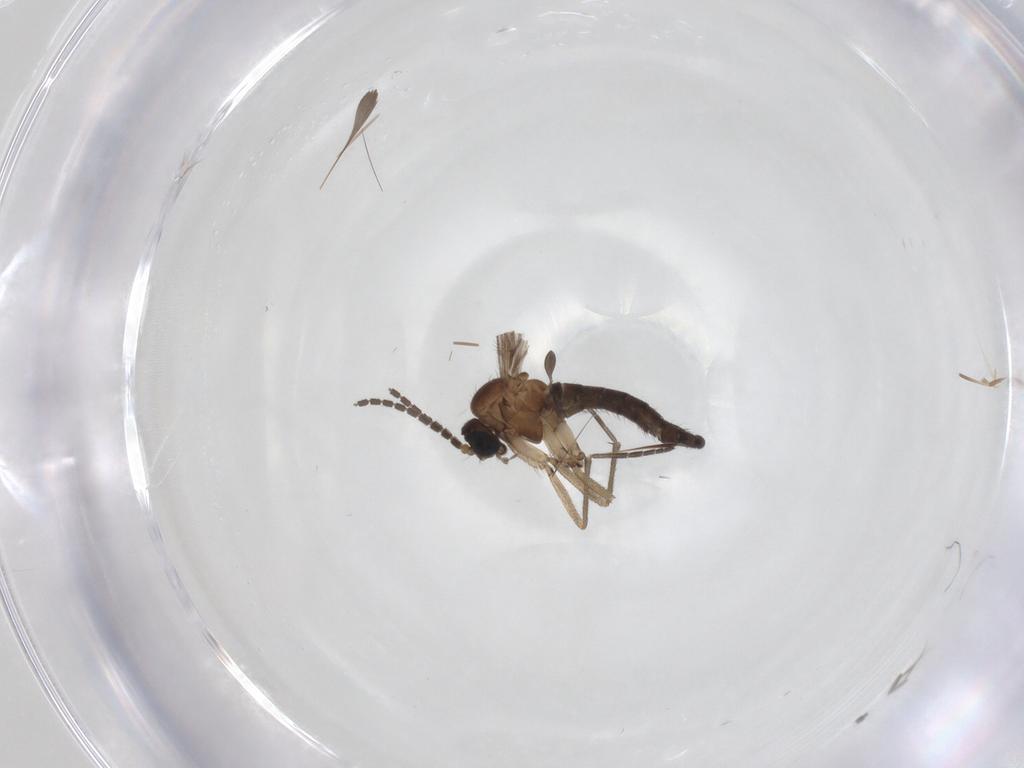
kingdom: Animalia
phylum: Arthropoda
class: Insecta
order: Diptera
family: Sciaridae
